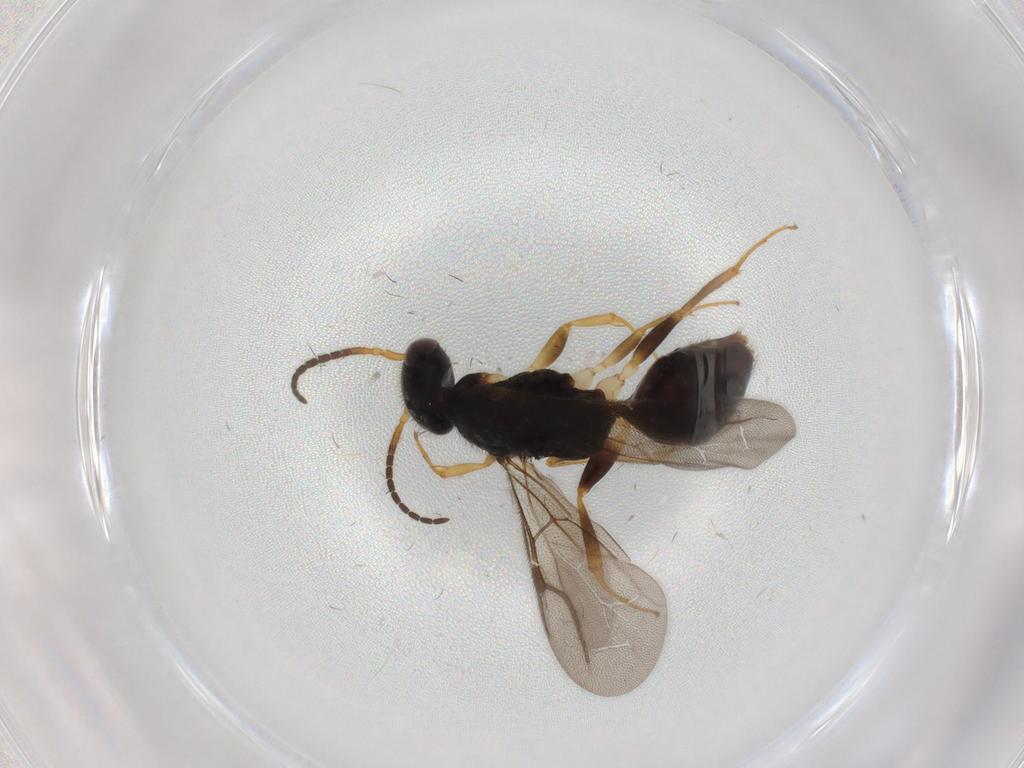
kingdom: Animalia
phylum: Arthropoda
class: Insecta
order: Hymenoptera
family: Bethylidae
